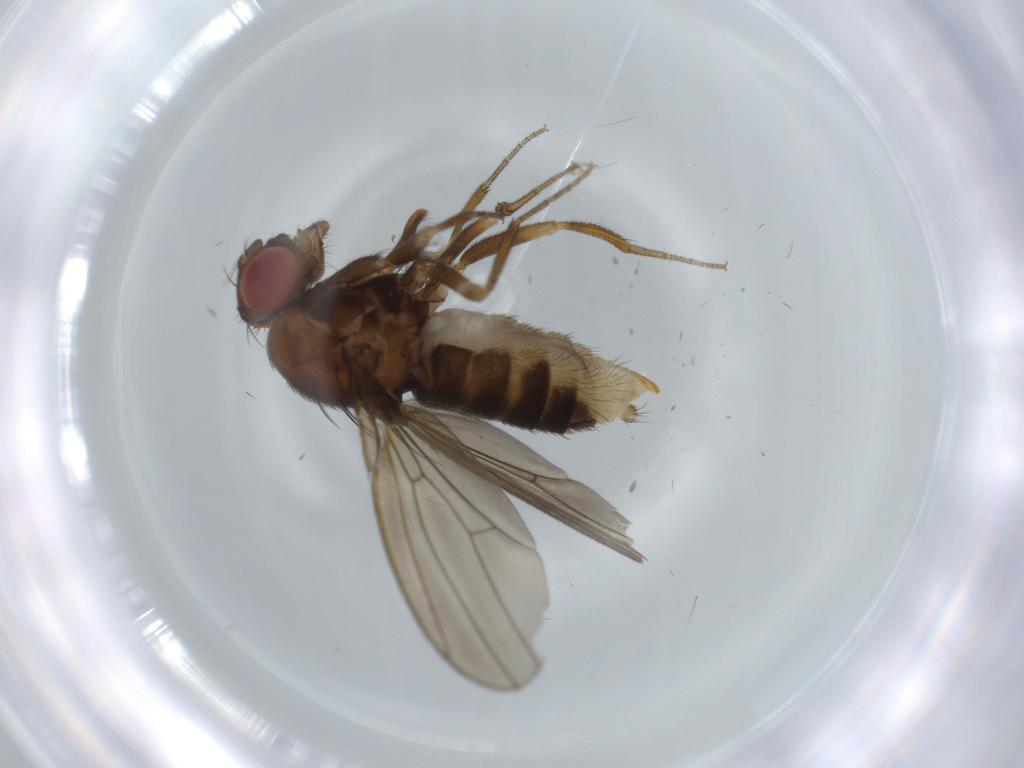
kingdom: Animalia
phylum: Arthropoda
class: Insecta
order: Diptera
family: Drosophilidae
